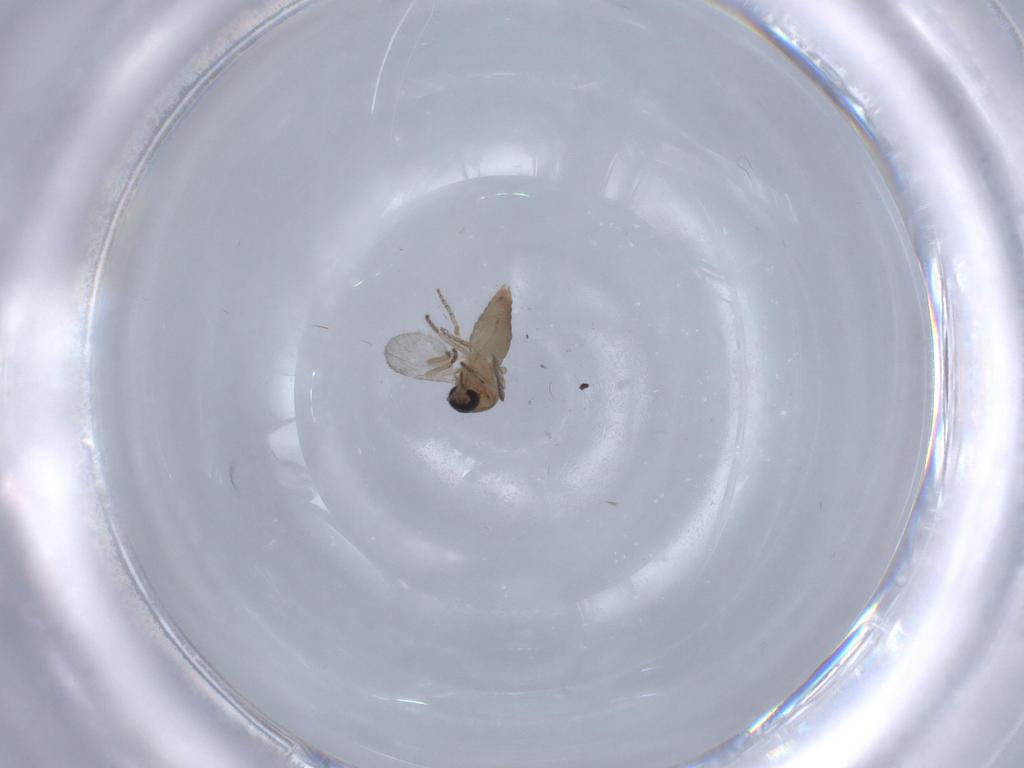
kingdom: Animalia
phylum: Arthropoda
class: Insecta
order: Diptera
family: Ceratopogonidae
